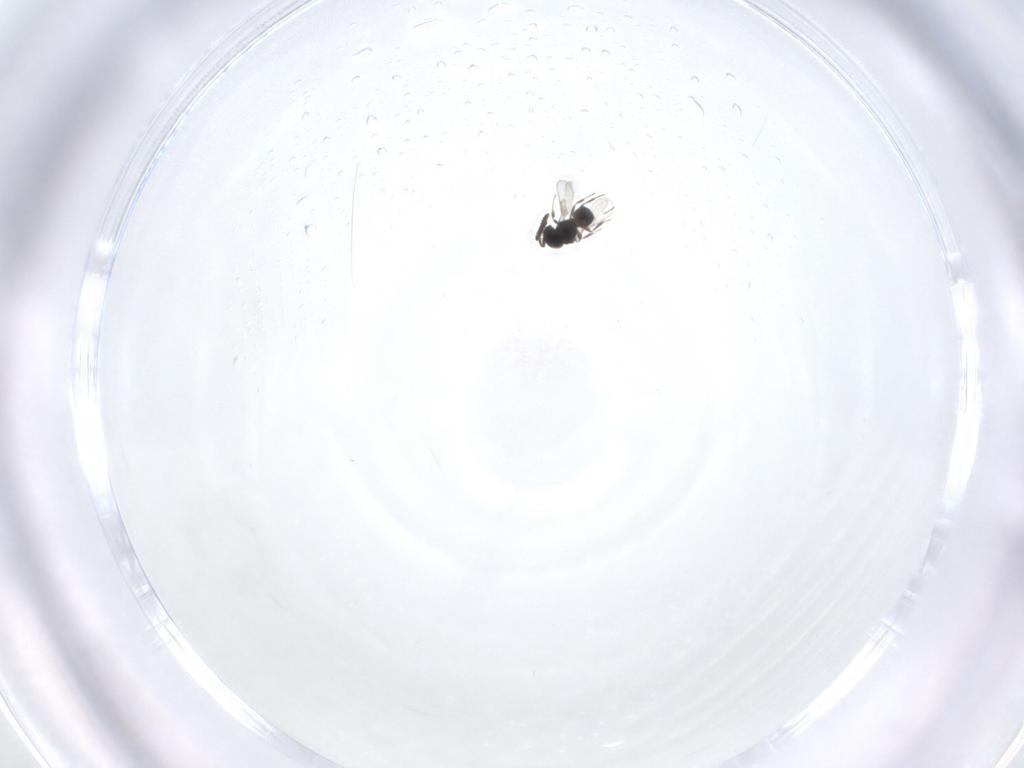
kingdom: Animalia
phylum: Arthropoda
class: Insecta
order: Hymenoptera
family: Scelionidae
